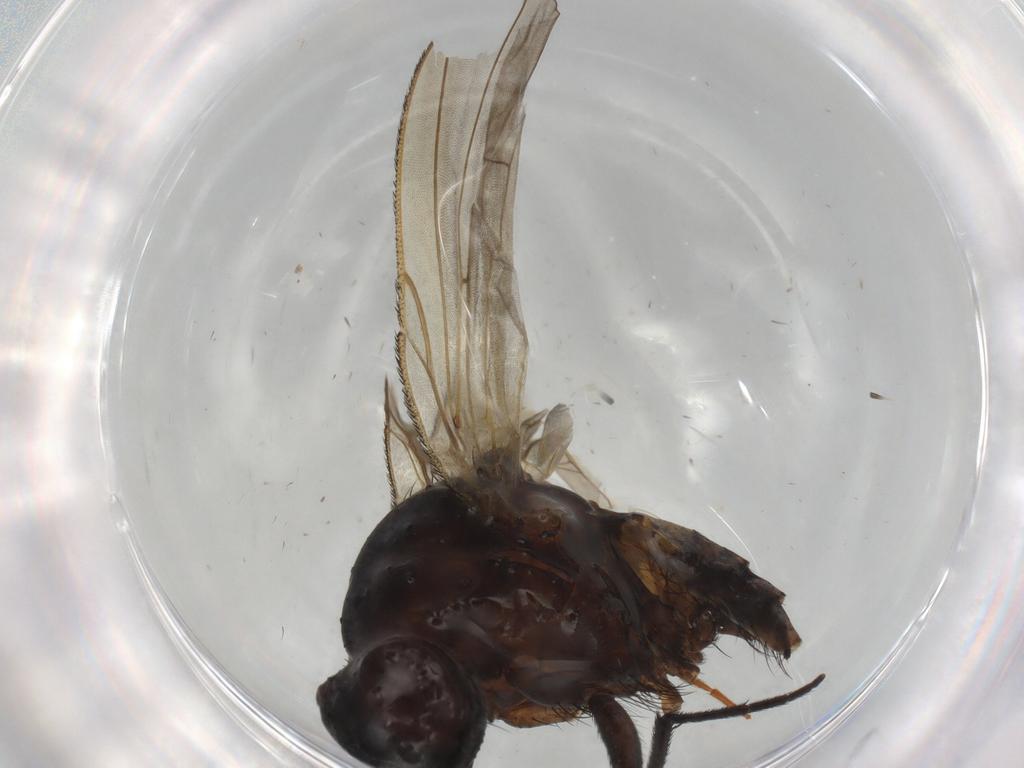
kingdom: Animalia
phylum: Arthropoda
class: Insecta
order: Diptera
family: Anthomyiidae
